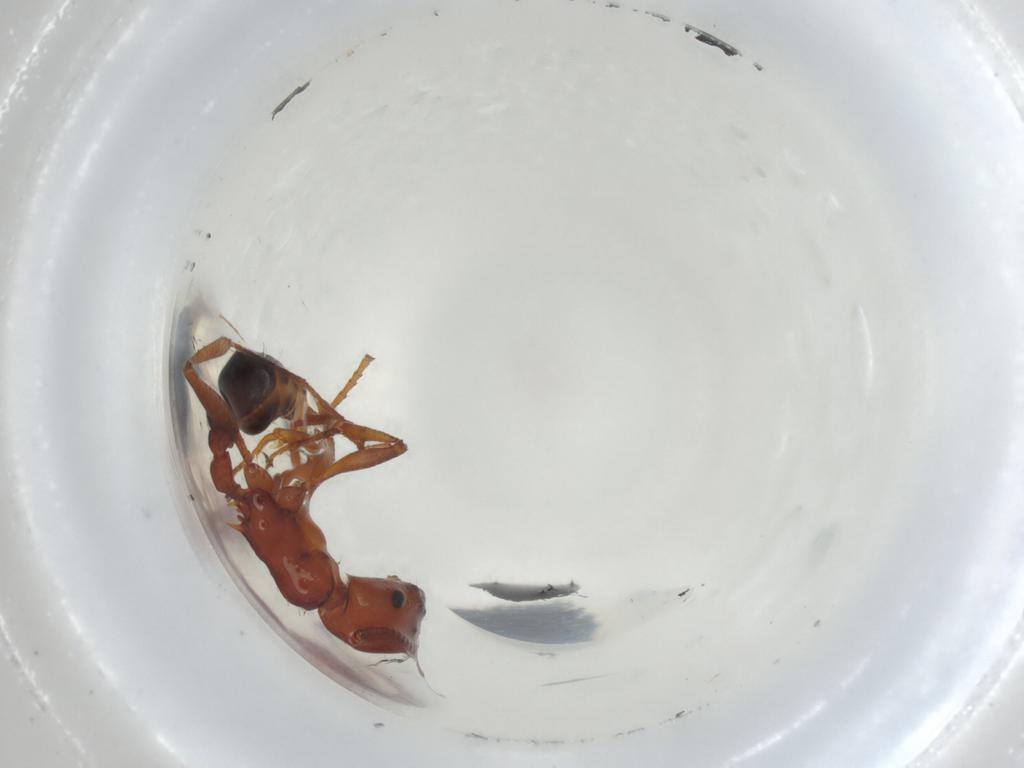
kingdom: Animalia
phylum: Arthropoda
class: Insecta
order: Hymenoptera
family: Formicidae
